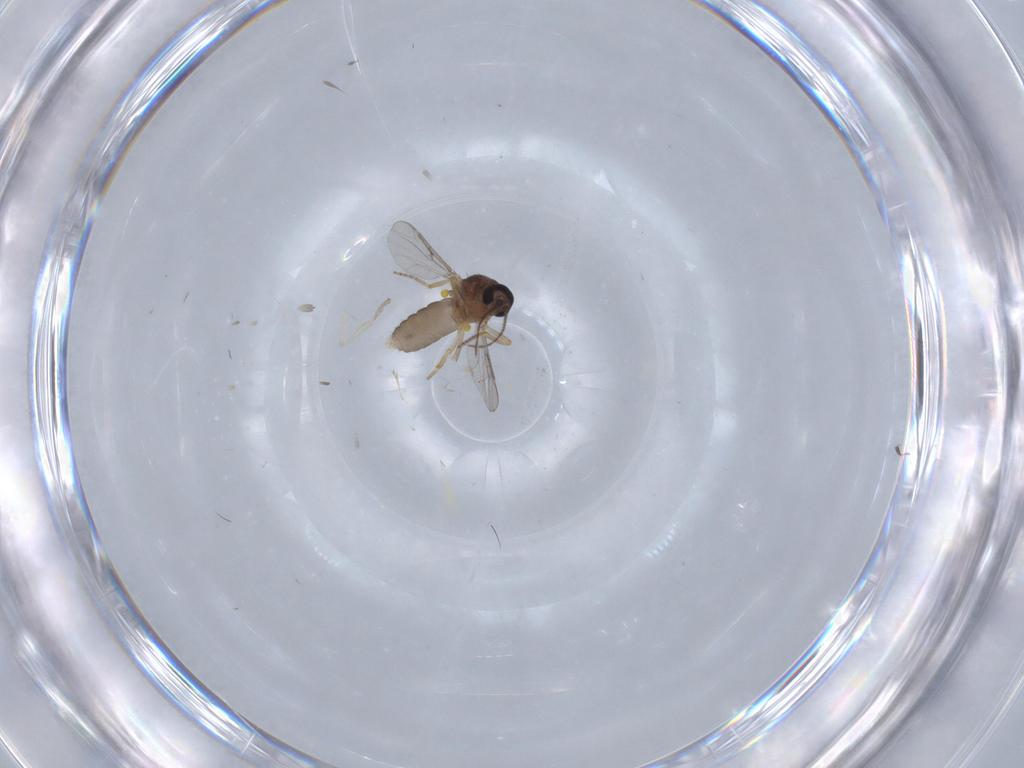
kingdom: Animalia
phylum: Arthropoda
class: Insecta
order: Diptera
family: Ceratopogonidae
